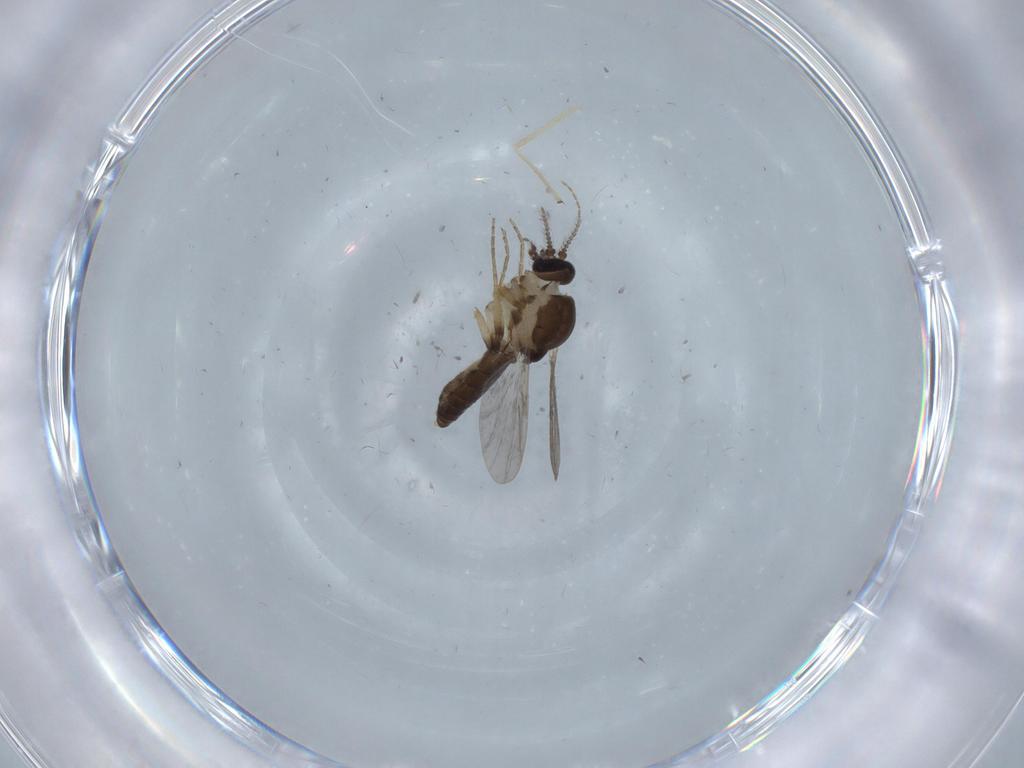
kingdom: Animalia
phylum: Arthropoda
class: Insecta
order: Diptera
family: Ceratopogonidae
